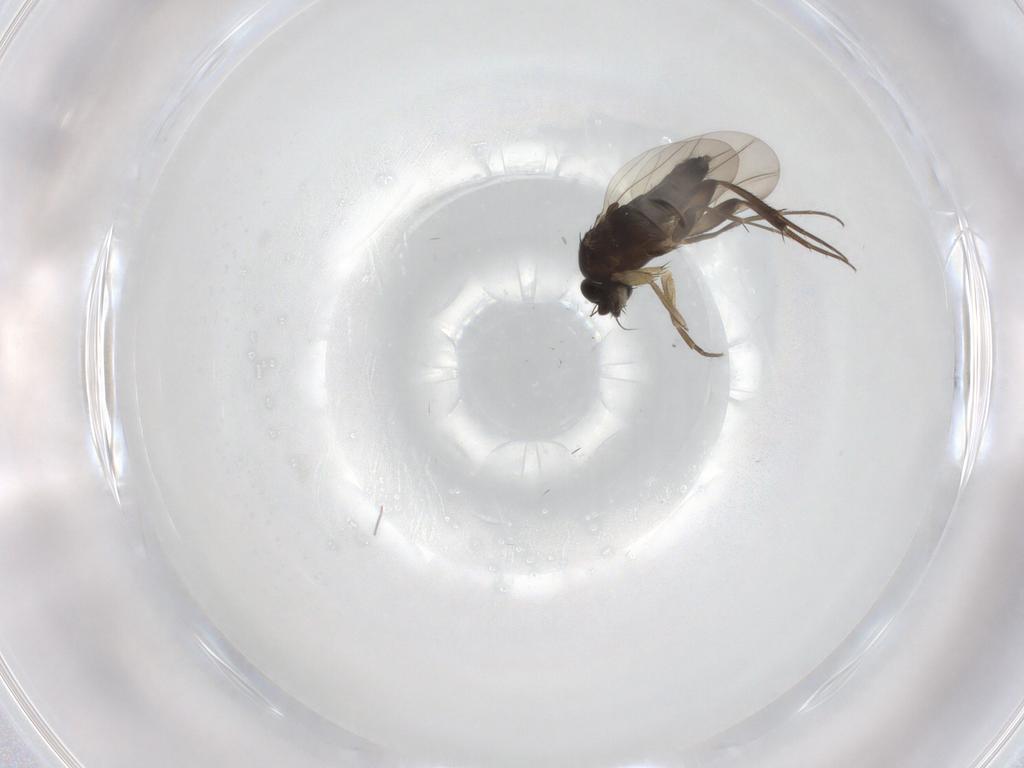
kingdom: Animalia
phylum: Arthropoda
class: Insecta
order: Diptera
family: Phoridae
